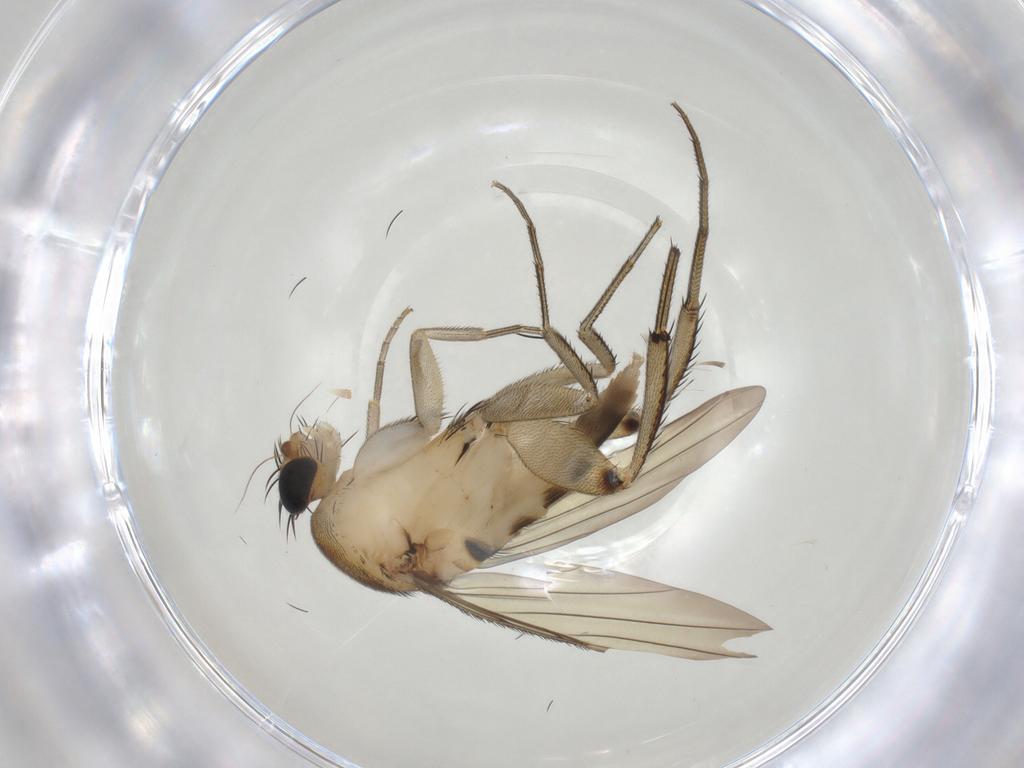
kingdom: Animalia
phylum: Arthropoda
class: Insecta
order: Diptera
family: Phoridae
